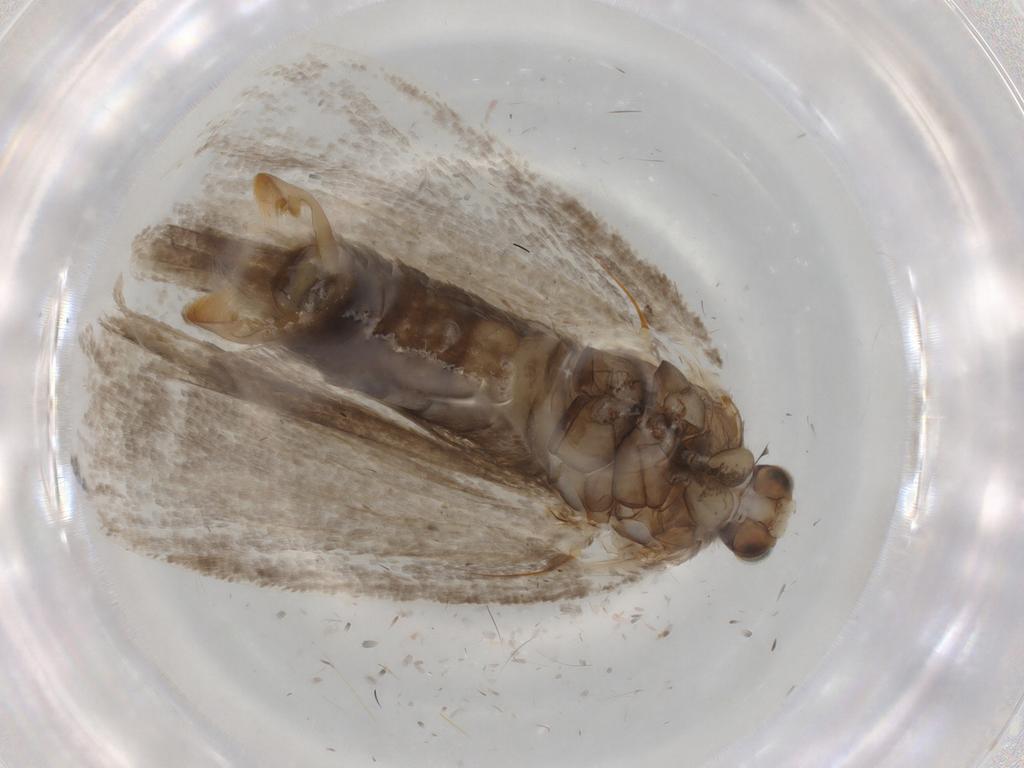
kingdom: Animalia
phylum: Arthropoda
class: Insecta
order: Lepidoptera
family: Tortricidae
